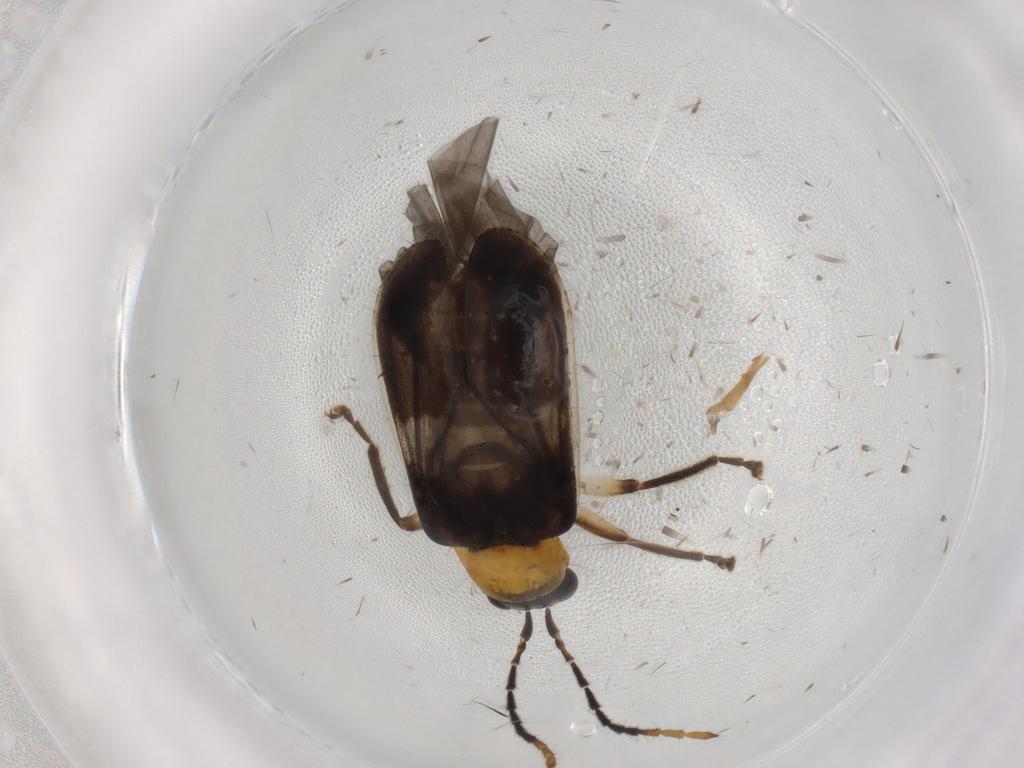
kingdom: Animalia
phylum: Arthropoda
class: Insecta
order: Coleoptera
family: Chrysomelidae
